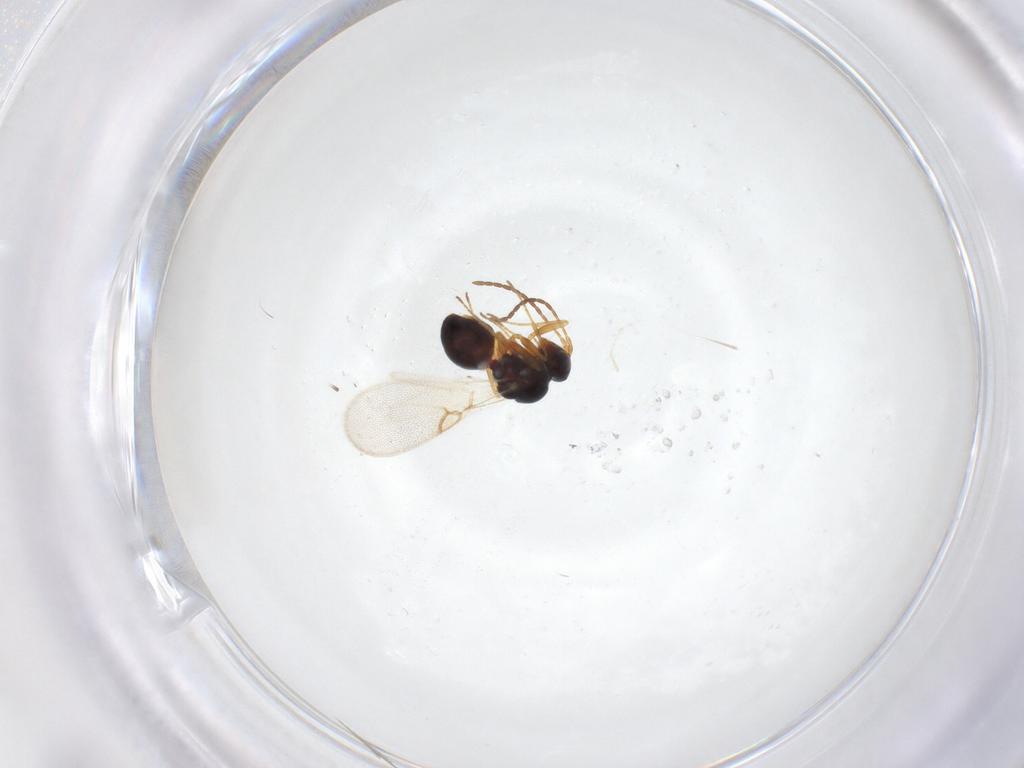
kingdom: Animalia
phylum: Arthropoda
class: Insecta
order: Hymenoptera
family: Figitidae
